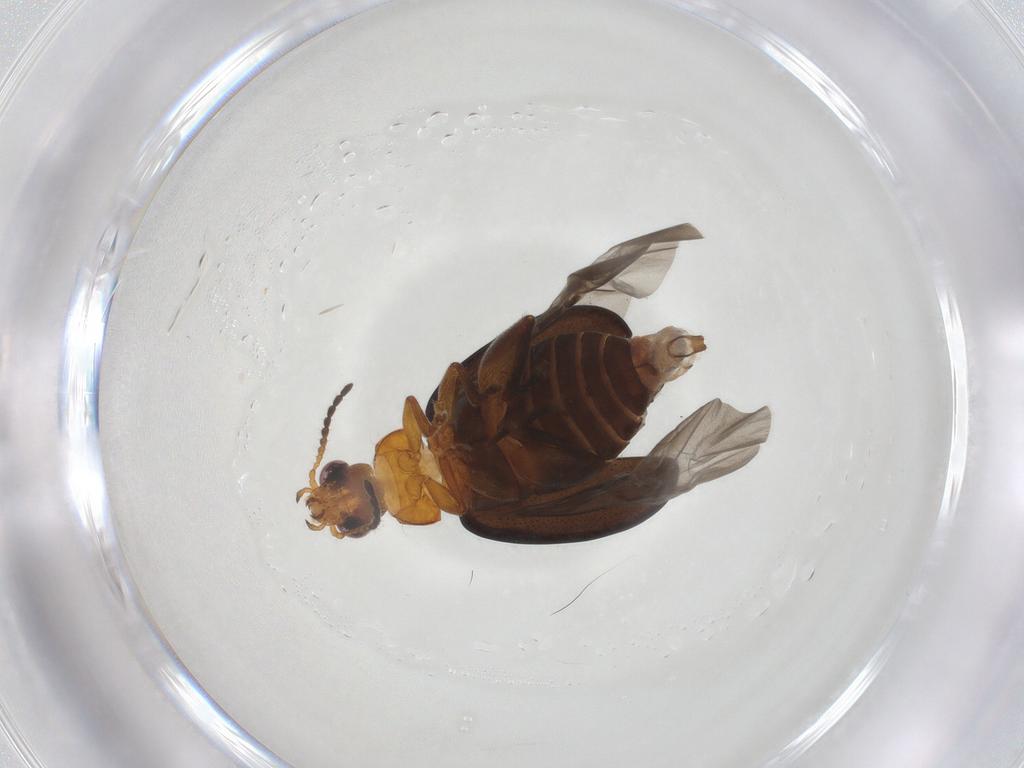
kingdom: Animalia
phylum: Arthropoda
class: Insecta
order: Coleoptera
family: Chrysomelidae
